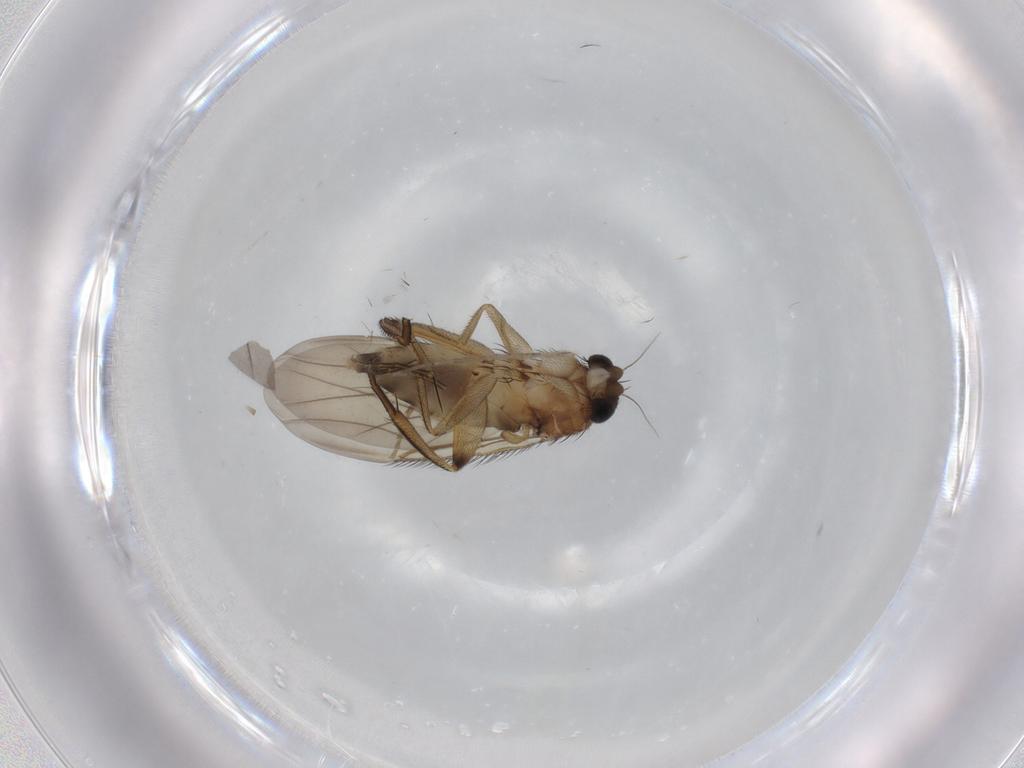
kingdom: Animalia
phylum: Arthropoda
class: Insecta
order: Diptera
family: Phoridae
